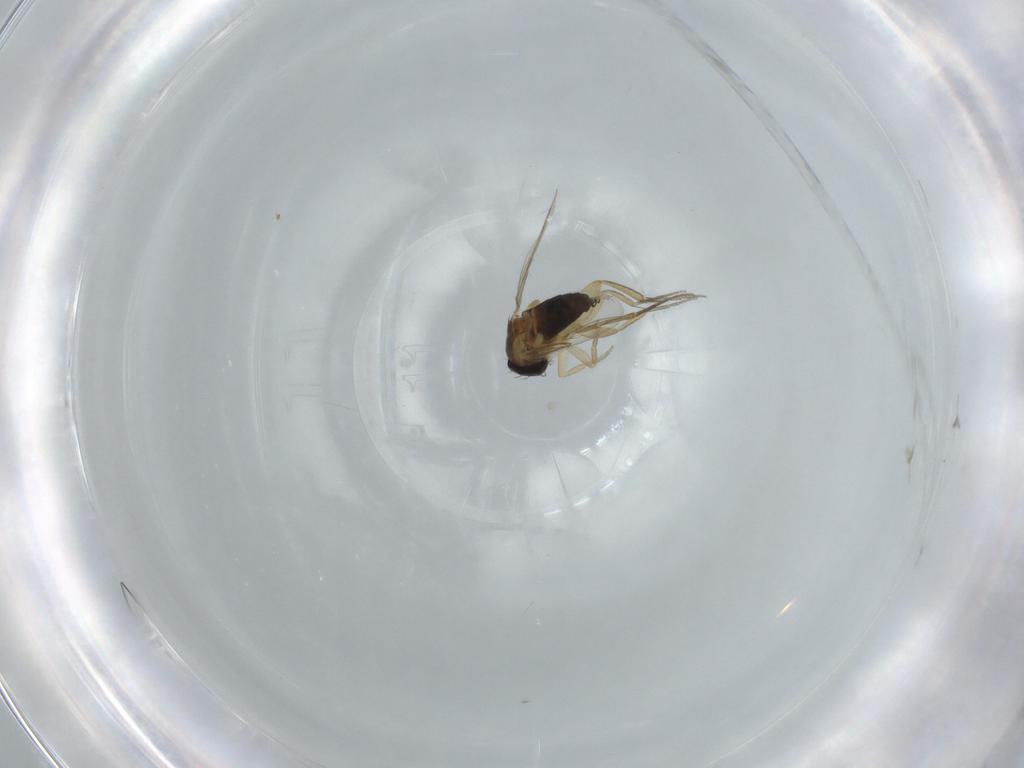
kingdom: Animalia
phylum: Arthropoda
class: Insecta
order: Diptera
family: Phoridae
